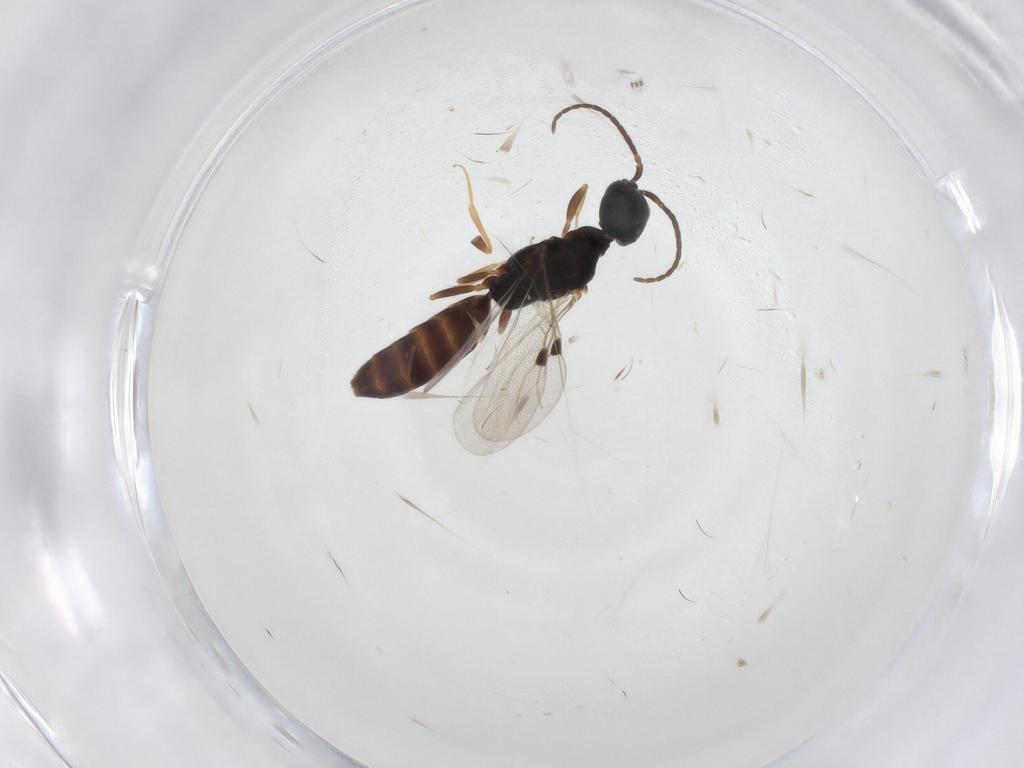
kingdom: Animalia
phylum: Arthropoda
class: Insecta
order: Hymenoptera
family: Bethylidae
